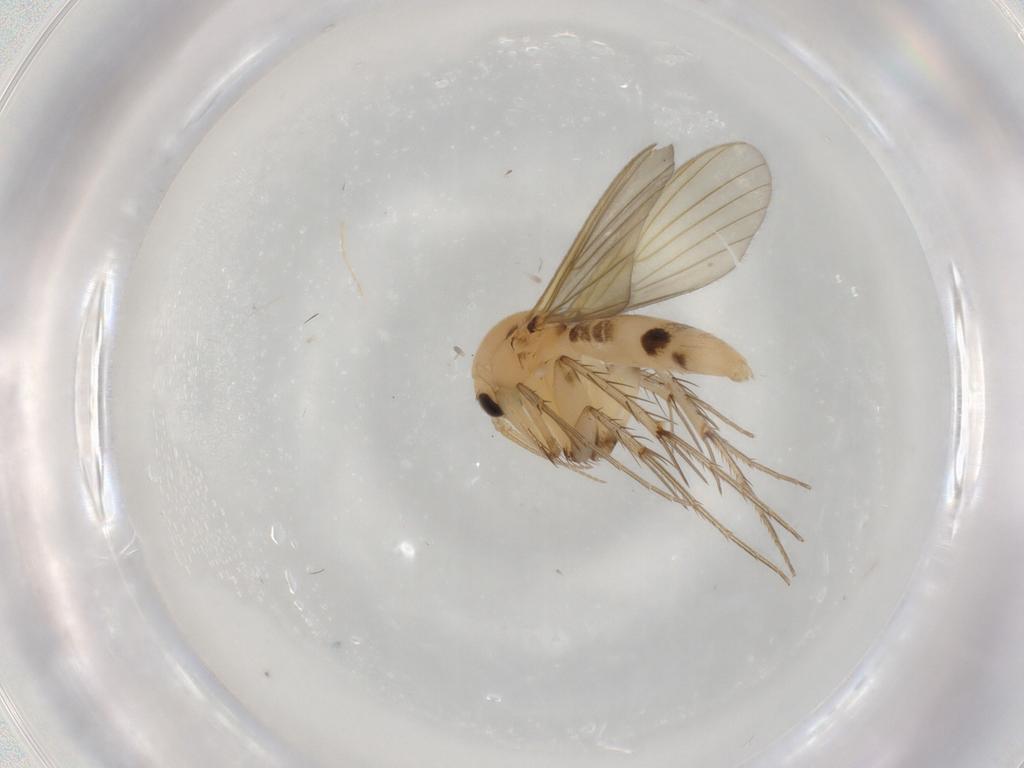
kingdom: Animalia
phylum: Arthropoda
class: Insecta
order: Diptera
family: Mycetophilidae
